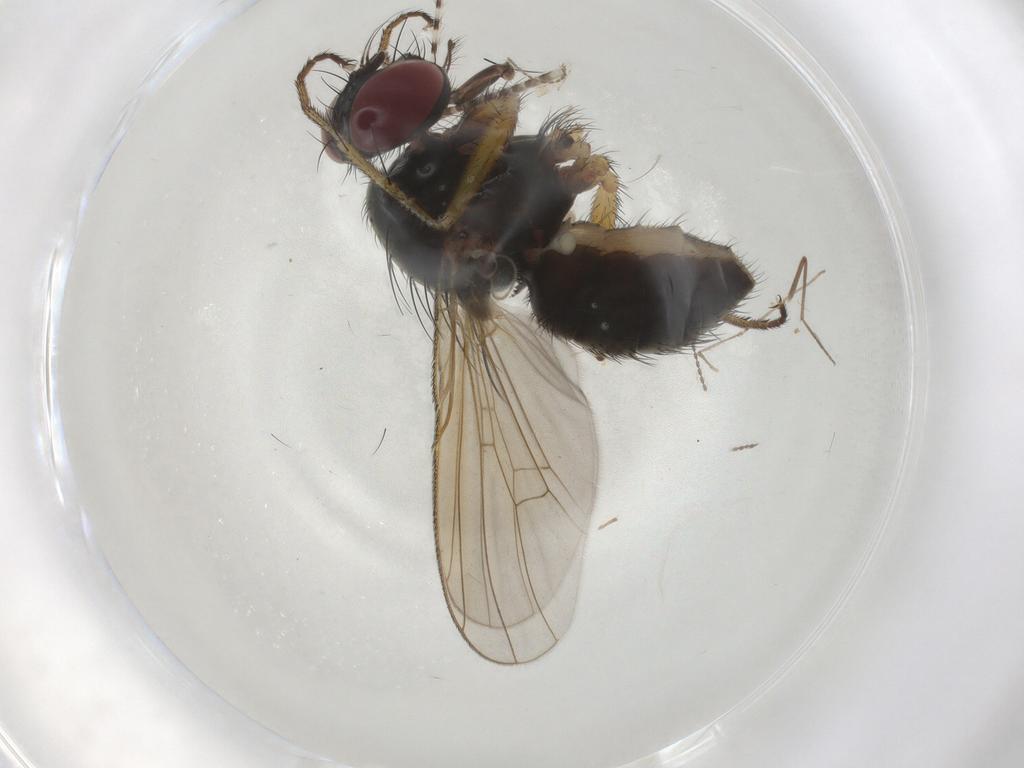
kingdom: Animalia
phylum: Arthropoda
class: Insecta
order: Diptera
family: Muscidae
